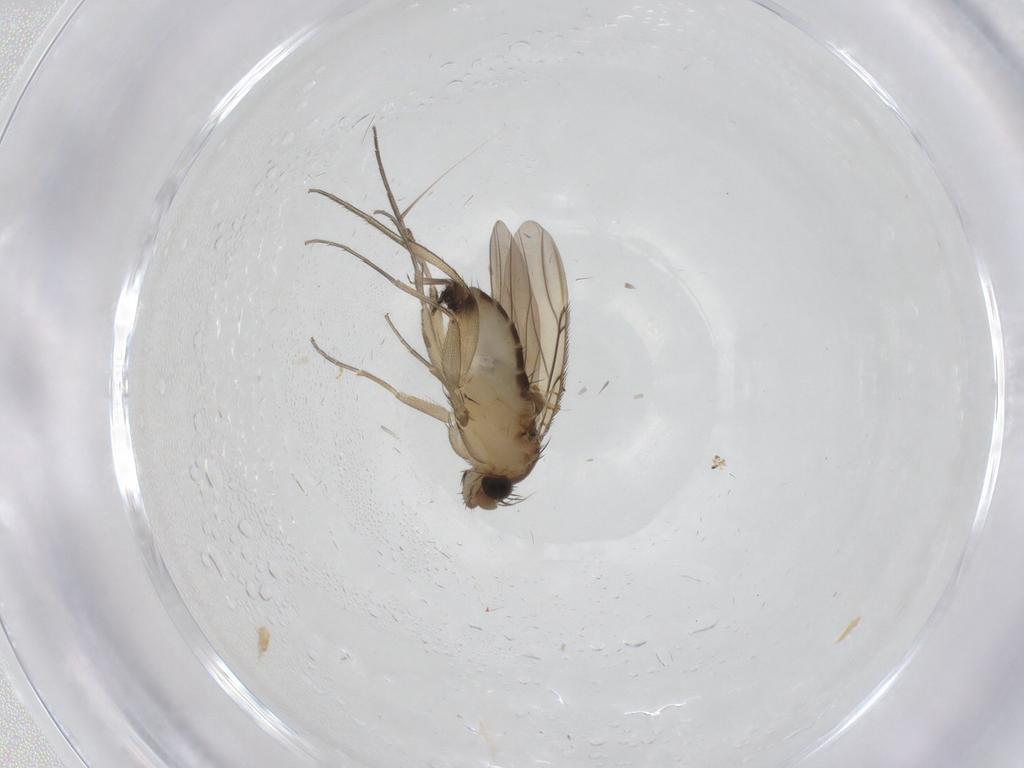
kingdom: Animalia
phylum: Arthropoda
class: Insecta
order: Diptera
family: Phoridae
